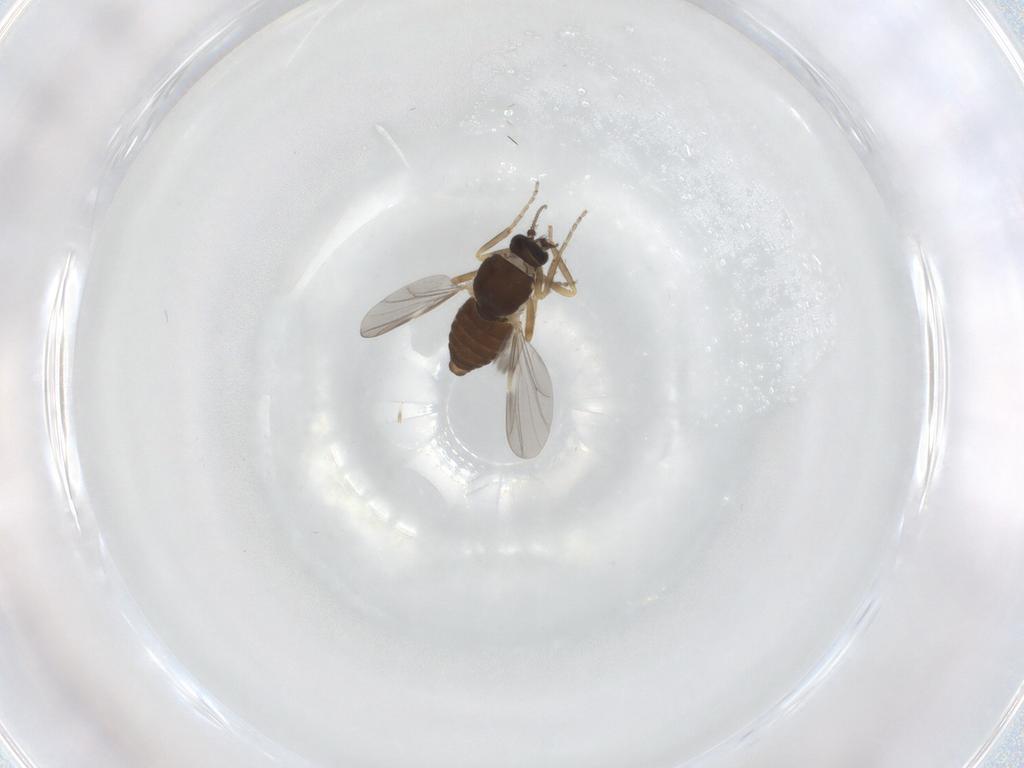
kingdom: Animalia
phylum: Arthropoda
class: Insecta
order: Diptera
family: Ceratopogonidae
